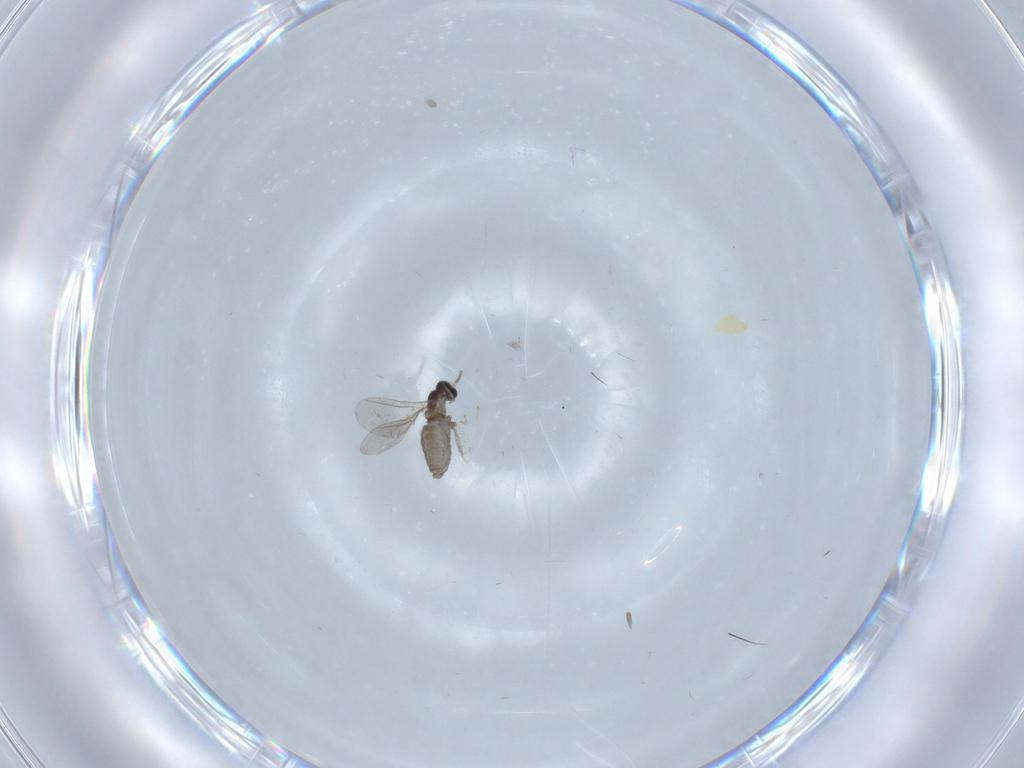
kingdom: Animalia
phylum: Arthropoda
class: Insecta
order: Diptera
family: Cecidomyiidae
